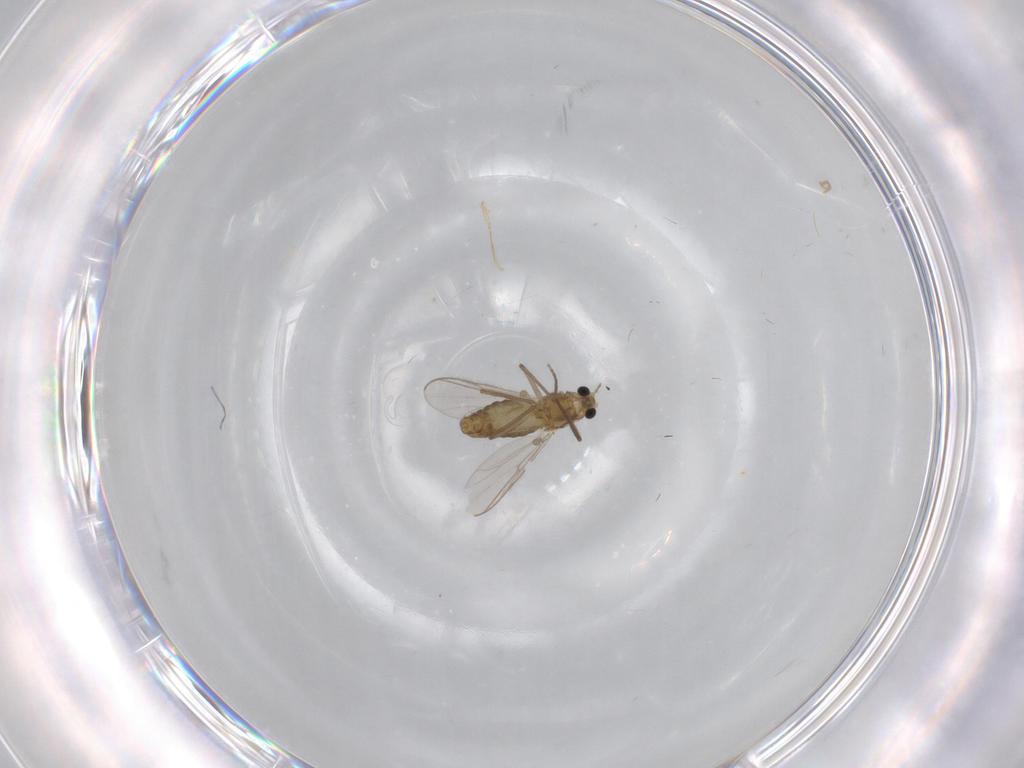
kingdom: Animalia
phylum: Arthropoda
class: Insecta
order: Diptera
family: Chironomidae
